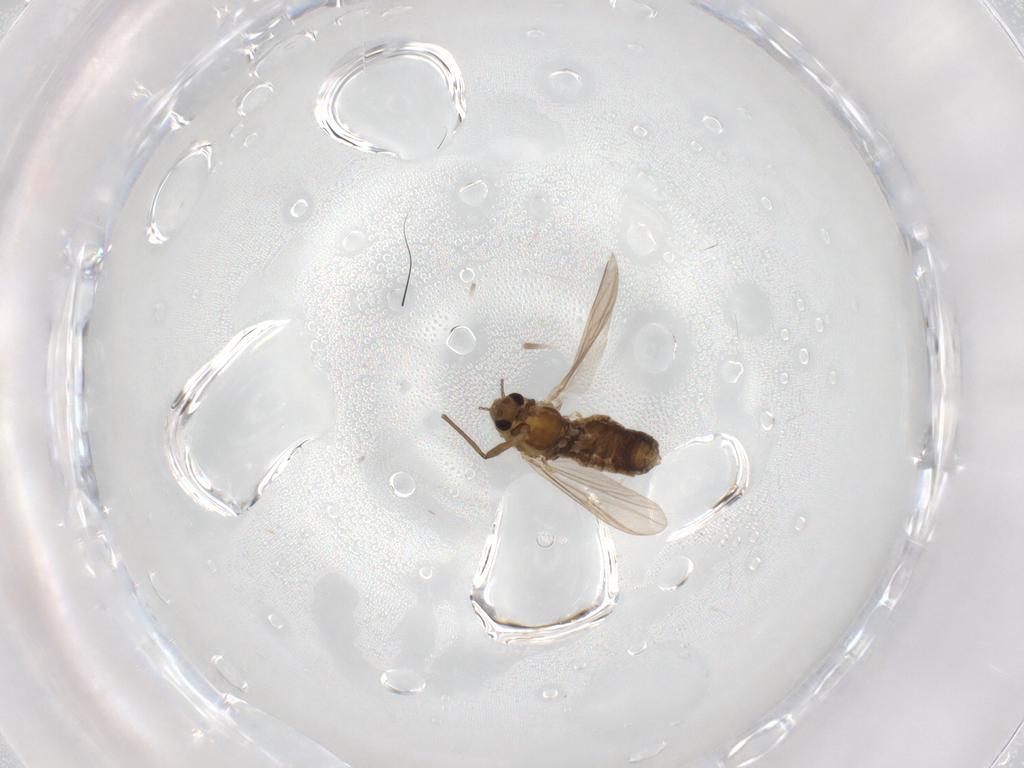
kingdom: Animalia
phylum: Arthropoda
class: Insecta
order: Diptera
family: Chironomidae
